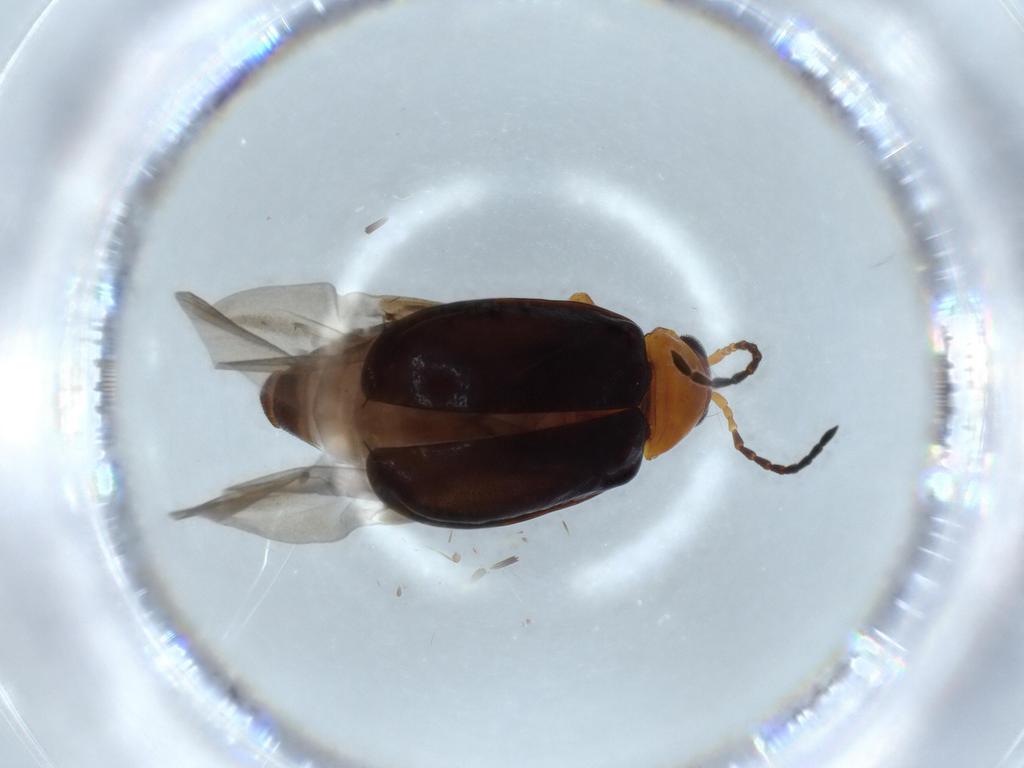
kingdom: Animalia
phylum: Arthropoda
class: Insecta
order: Coleoptera
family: Chrysomelidae
